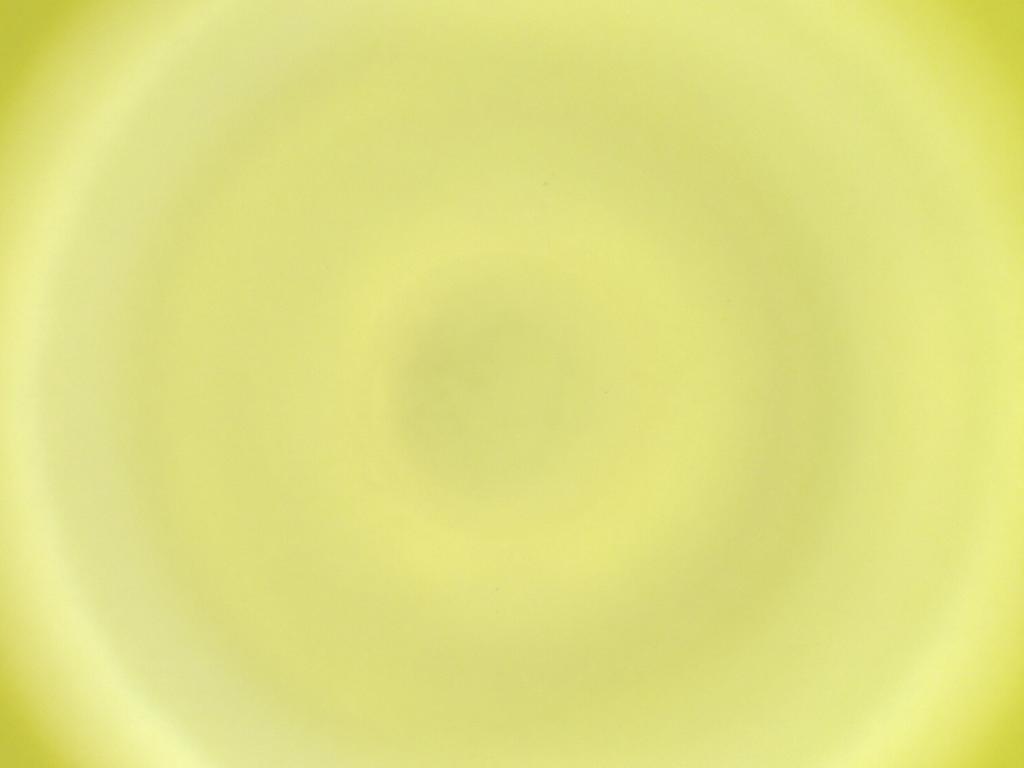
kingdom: Animalia
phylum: Arthropoda
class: Insecta
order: Diptera
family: Cecidomyiidae
